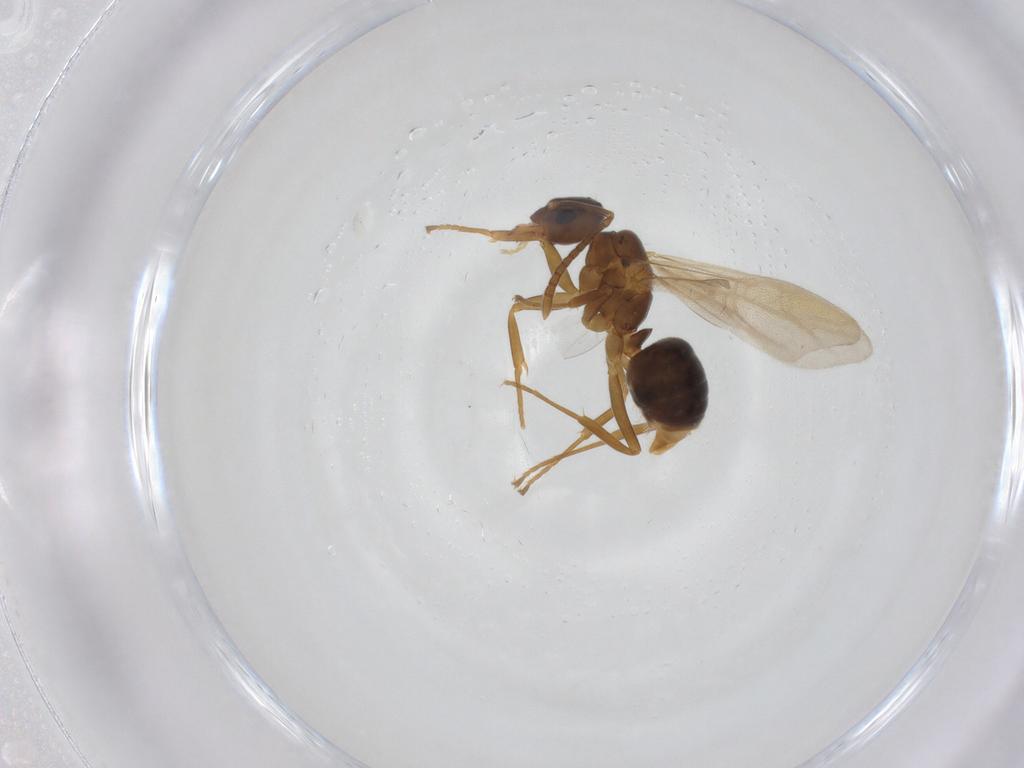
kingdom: Animalia
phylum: Arthropoda
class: Insecta
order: Hymenoptera
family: Formicidae
